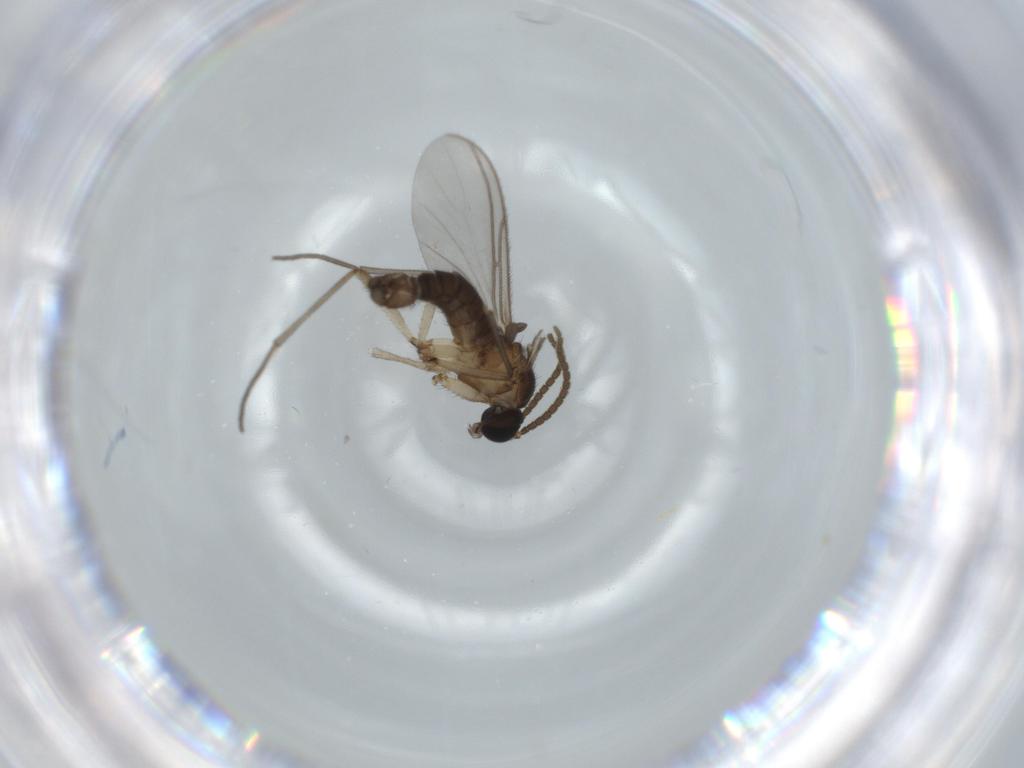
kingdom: Animalia
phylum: Arthropoda
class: Insecta
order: Diptera
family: Sciaridae
